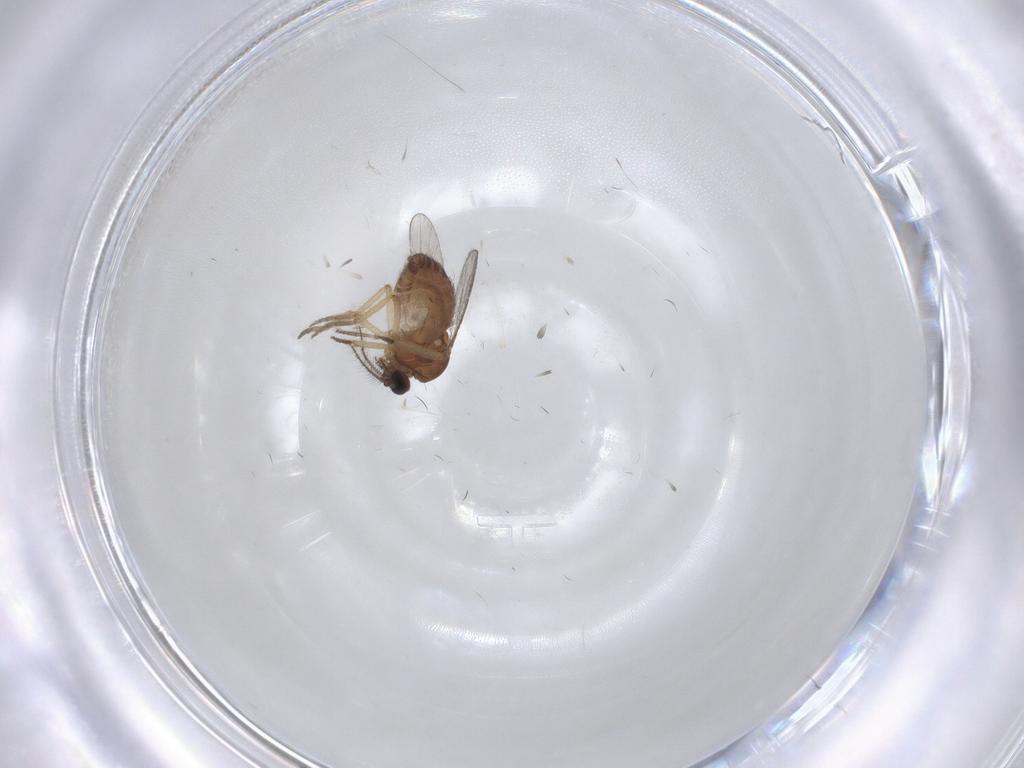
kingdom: Animalia
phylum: Arthropoda
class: Insecta
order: Diptera
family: Ceratopogonidae
